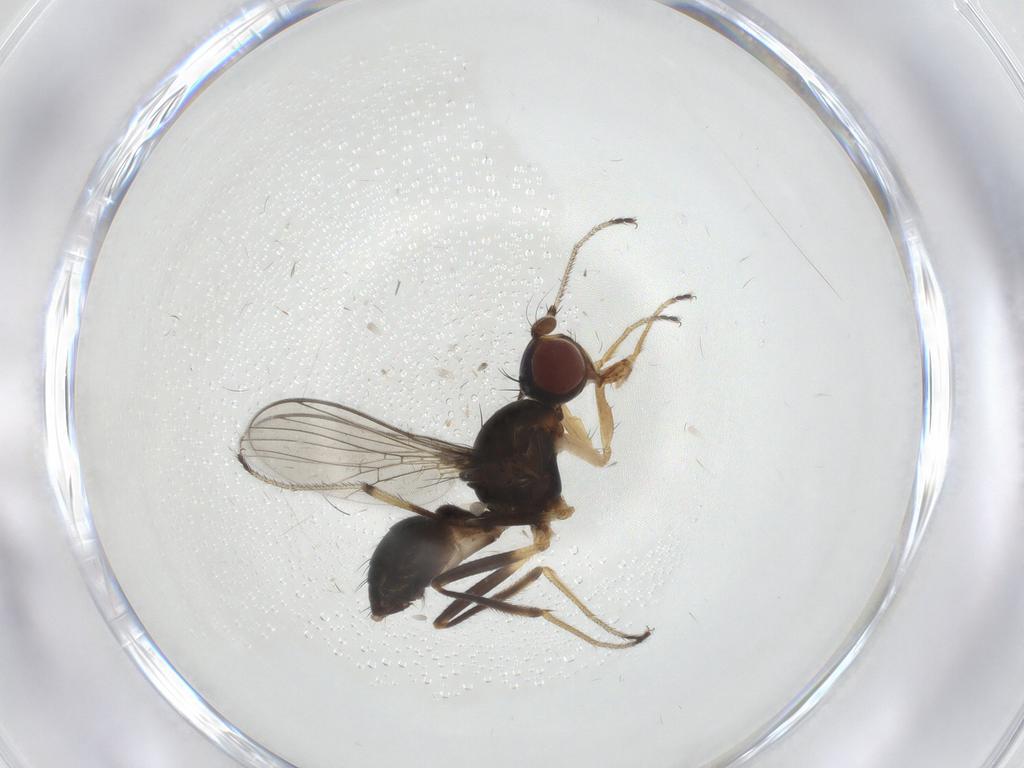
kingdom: Animalia
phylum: Arthropoda
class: Insecta
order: Diptera
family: Sepsidae
